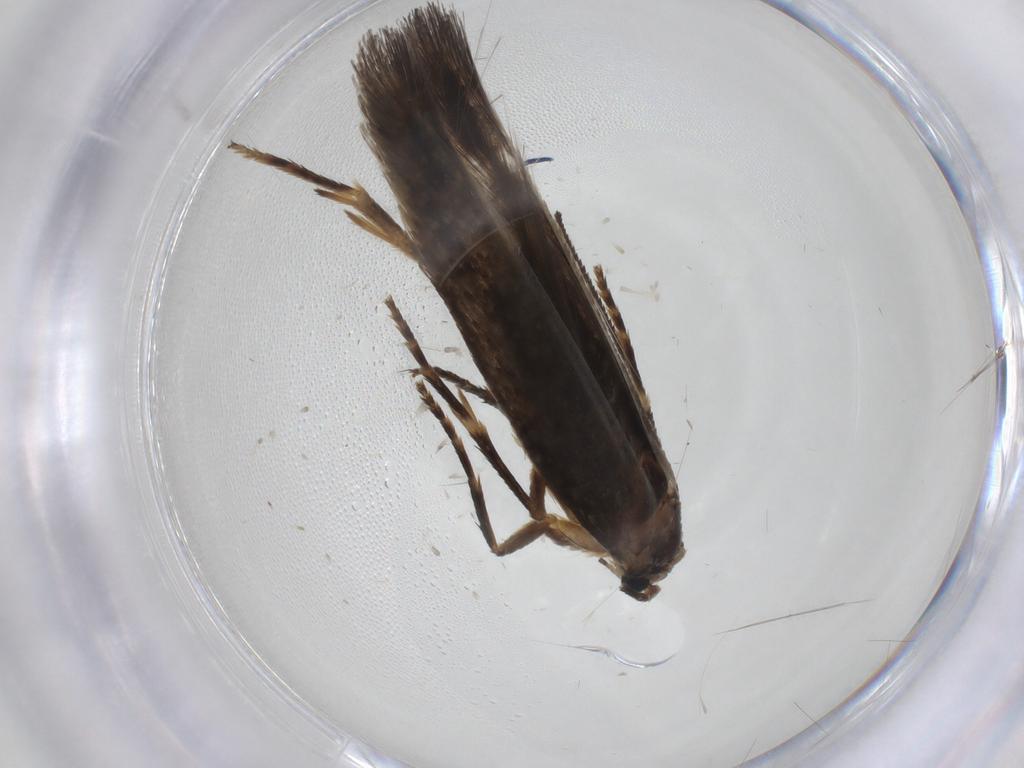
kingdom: Animalia
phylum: Arthropoda
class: Insecta
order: Lepidoptera
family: Nepticulidae
